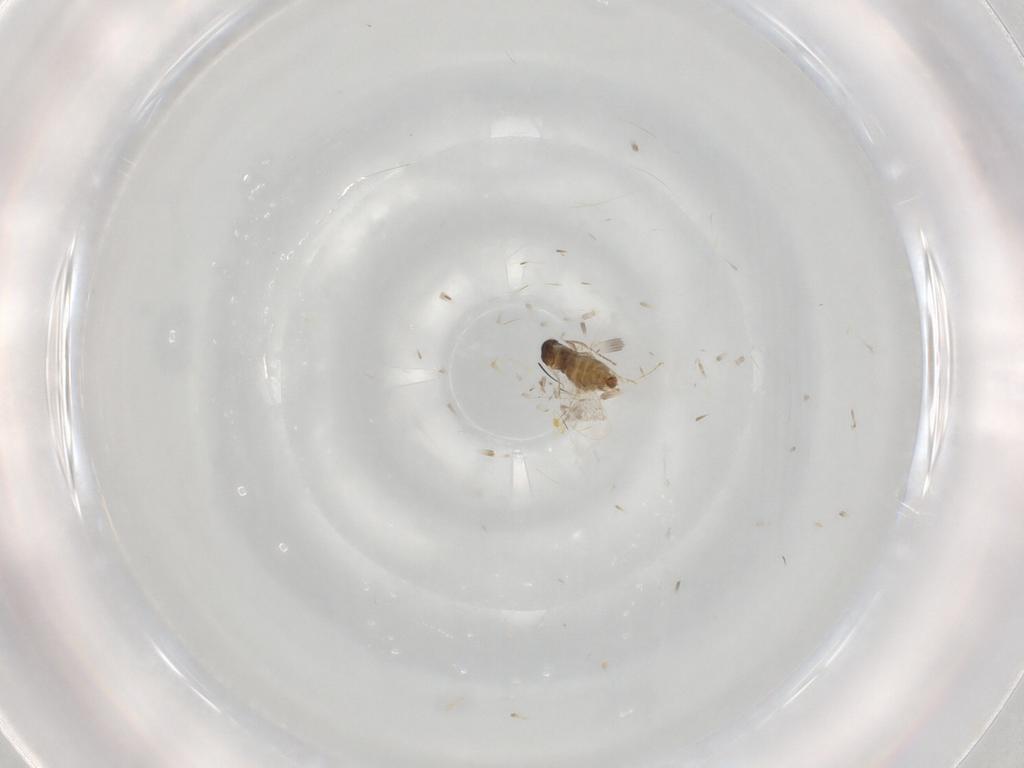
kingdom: Animalia
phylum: Arthropoda
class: Insecta
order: Diptera
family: Cecidomyiidae
